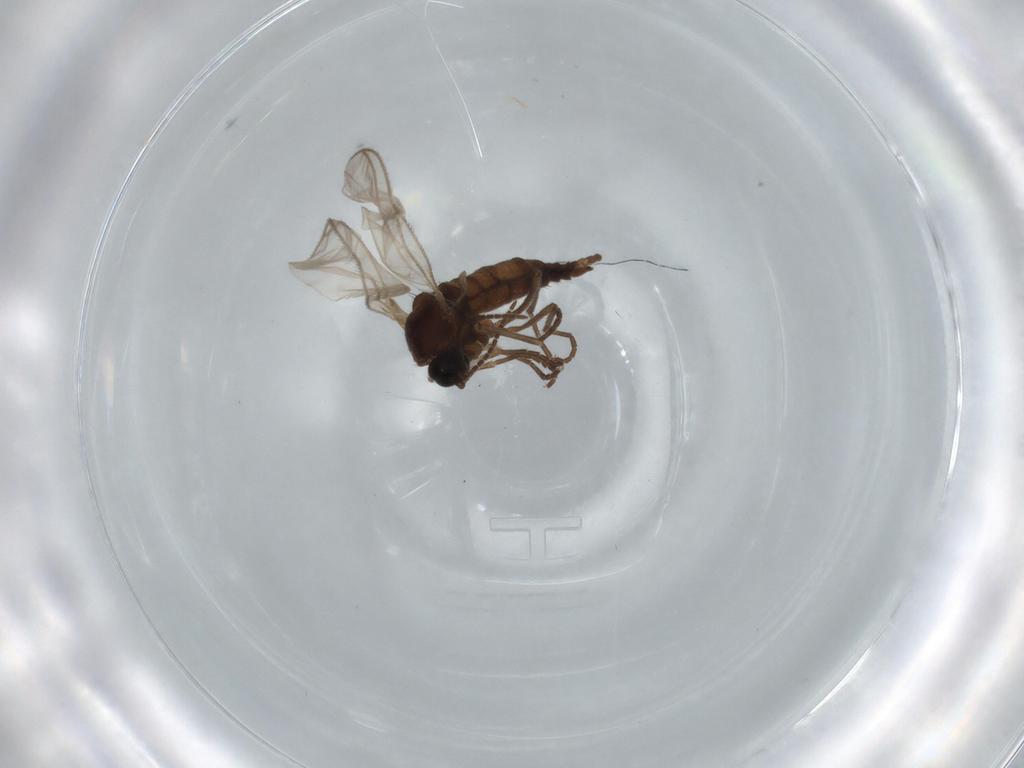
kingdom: Animalia
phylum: Arthropoda
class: Insecta
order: Diptera
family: Sciaridae
